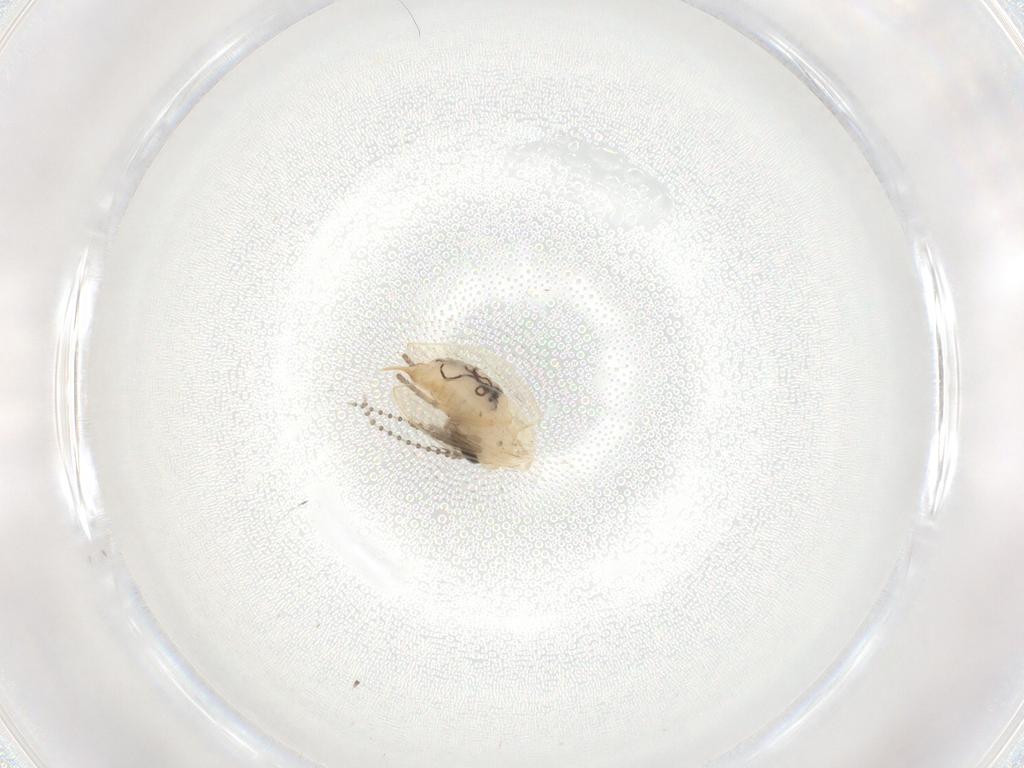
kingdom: Animalia
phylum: Arthropoda
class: Insecta
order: Diptera
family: Psychodidae
